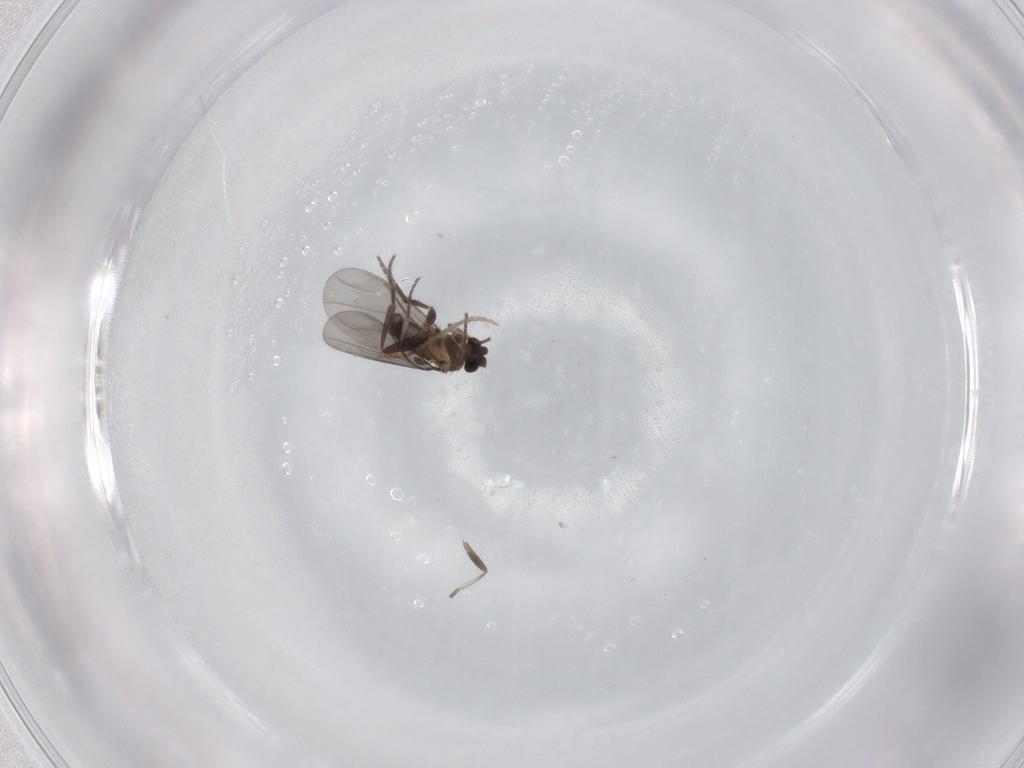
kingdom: Animalia
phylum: Arthropoda
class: Insecta
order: Diptera
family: Phoridae
